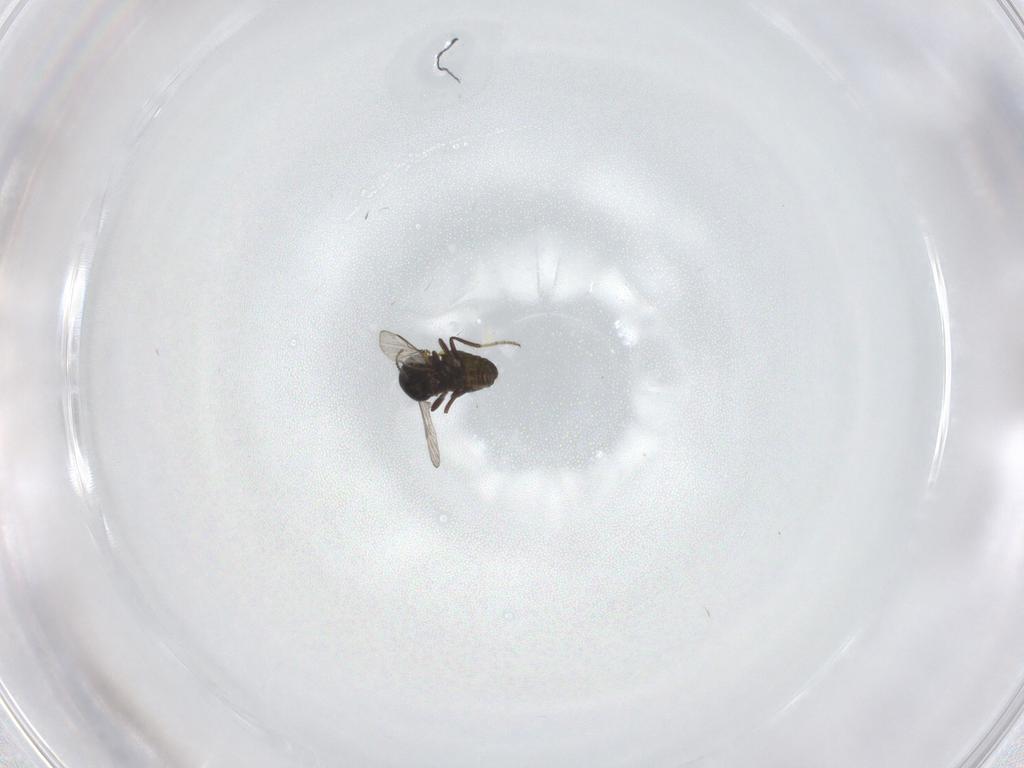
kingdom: Animalia
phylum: Arthropoda
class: Insecta
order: Diptera
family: Ceratopogonidae
